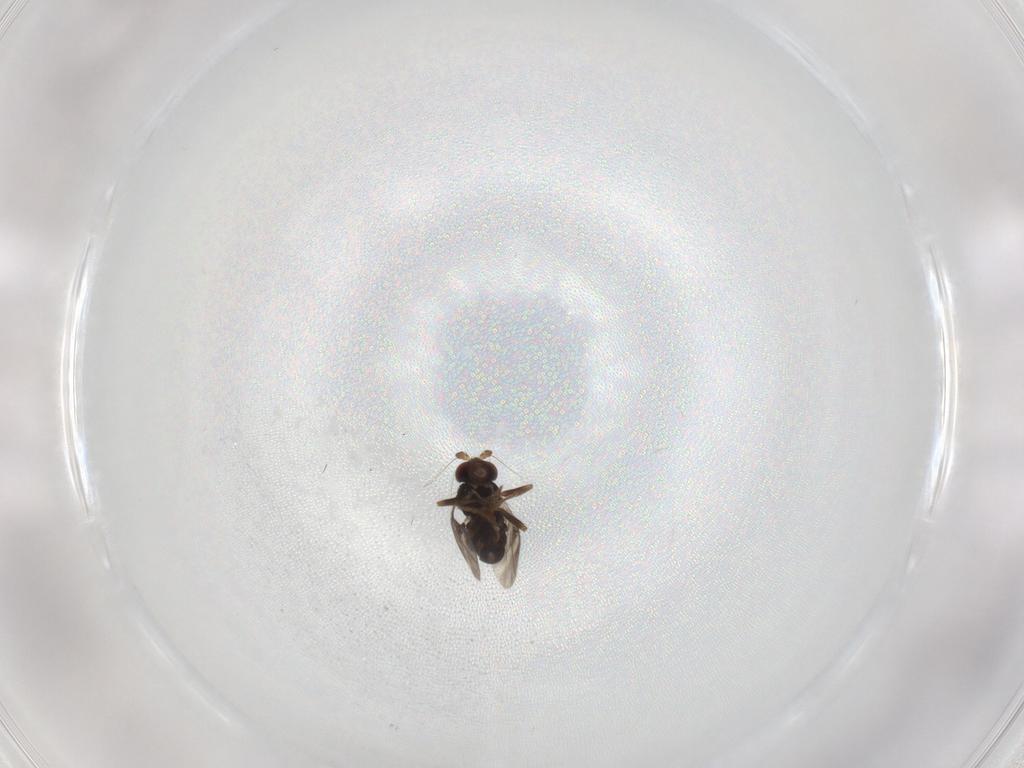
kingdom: Animalia
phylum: Arthropoda
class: Insecta
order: Diptera
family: Sphaeroceridae
